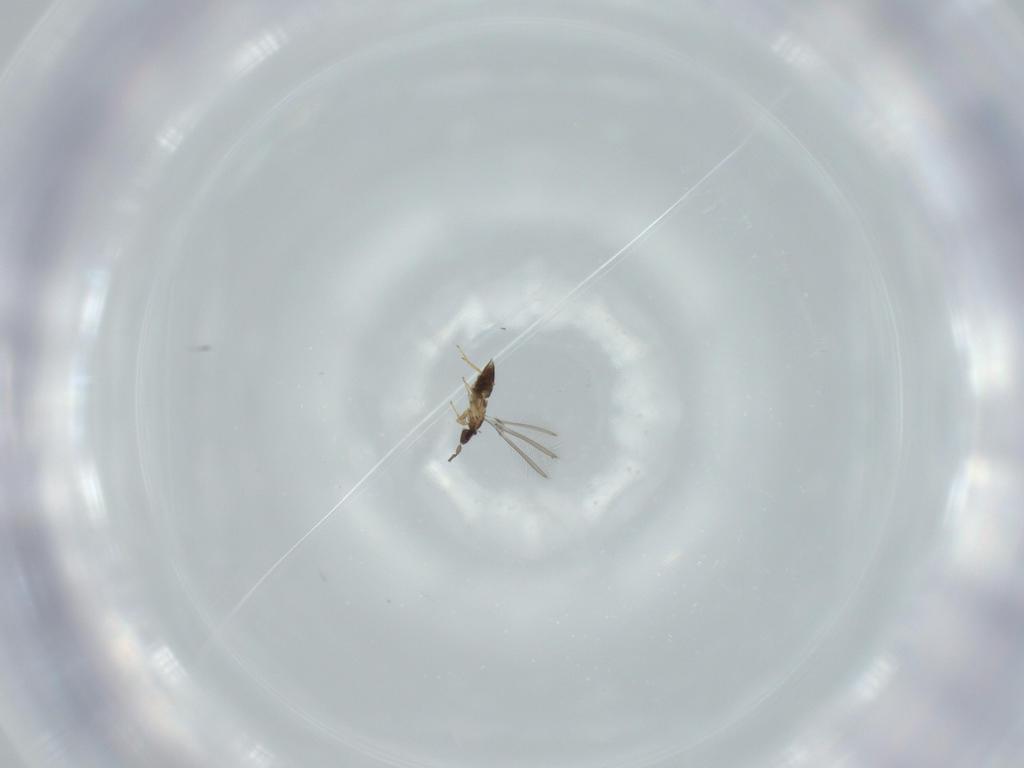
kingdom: Animalia
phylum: Arthropoda
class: Insecta
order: Hymenoptera
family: Mymaridae
